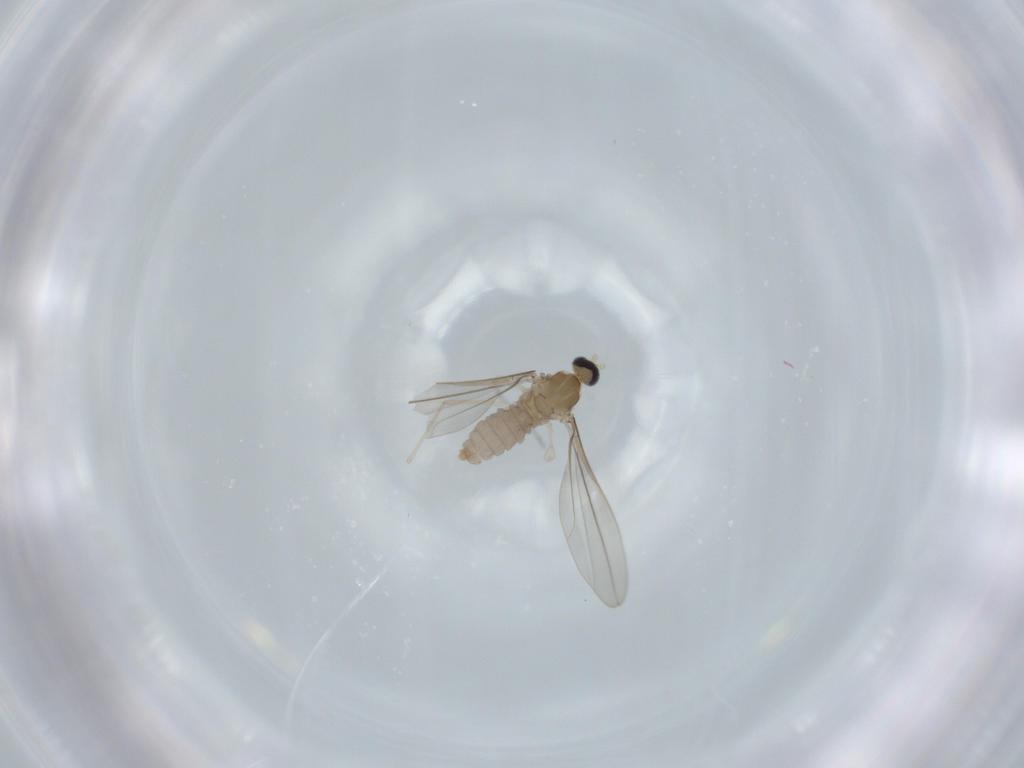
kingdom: Animalia
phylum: Arthropoda
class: Insecta
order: Diptera
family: Cecidomyiidae
